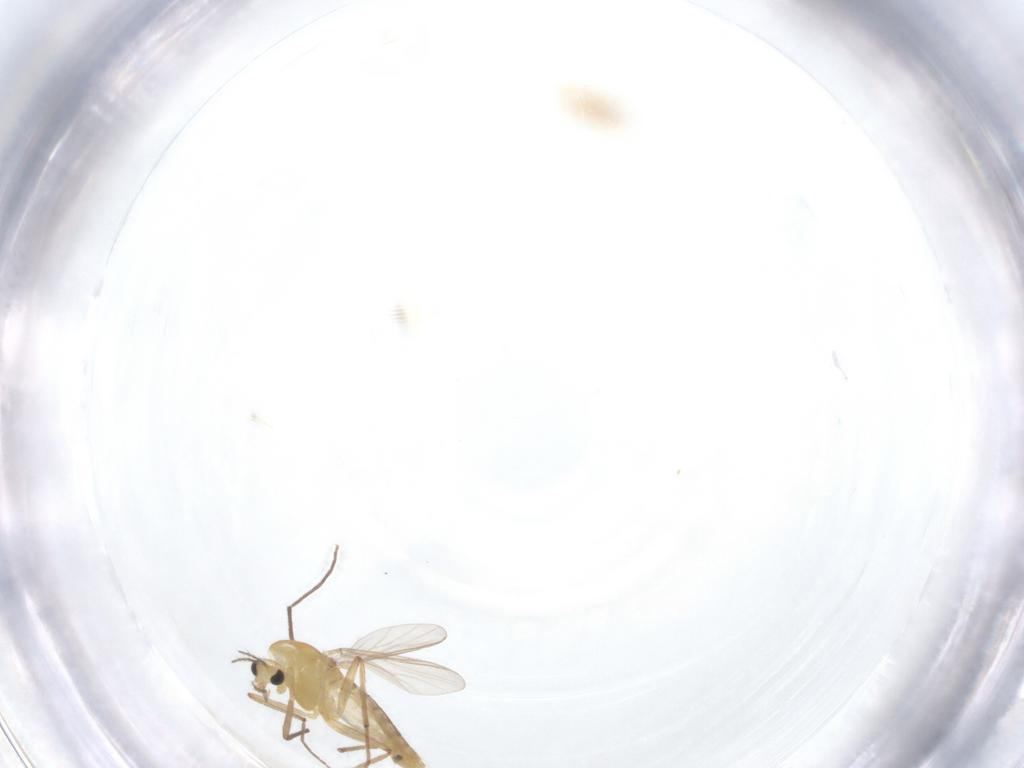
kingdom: Animalia
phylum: Arthropoda
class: Insecta
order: Diptera
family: Chironomidae
